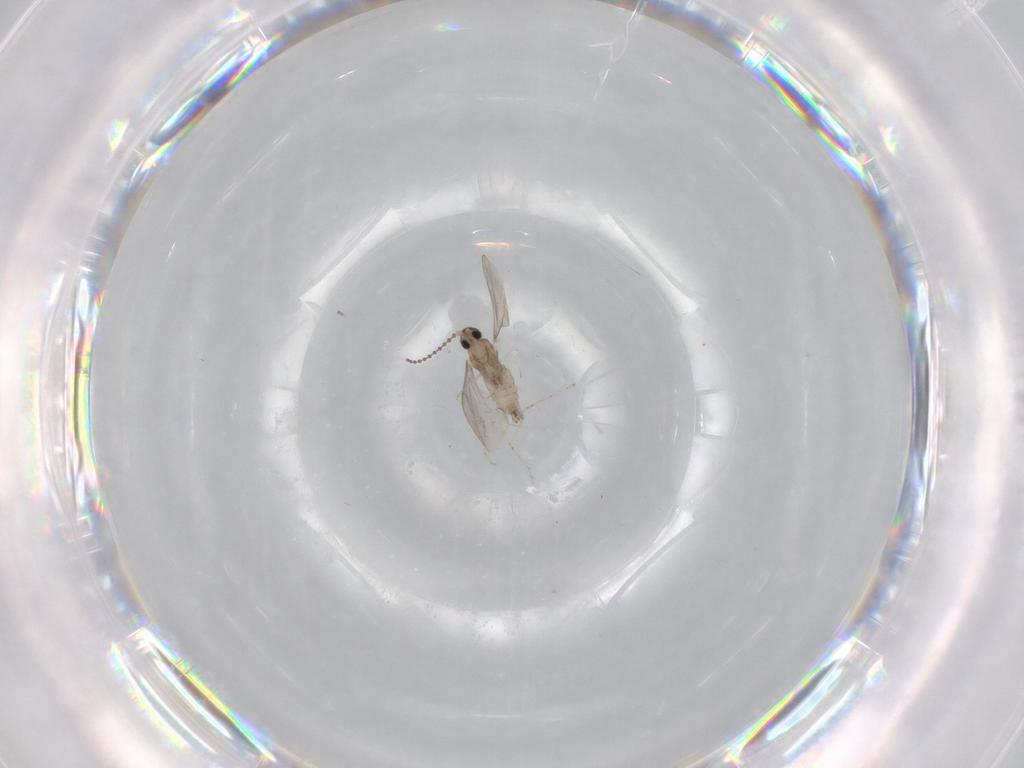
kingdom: Animalia
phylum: Arthropoda
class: Insecta
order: Diptera
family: Cecidomyiidae
